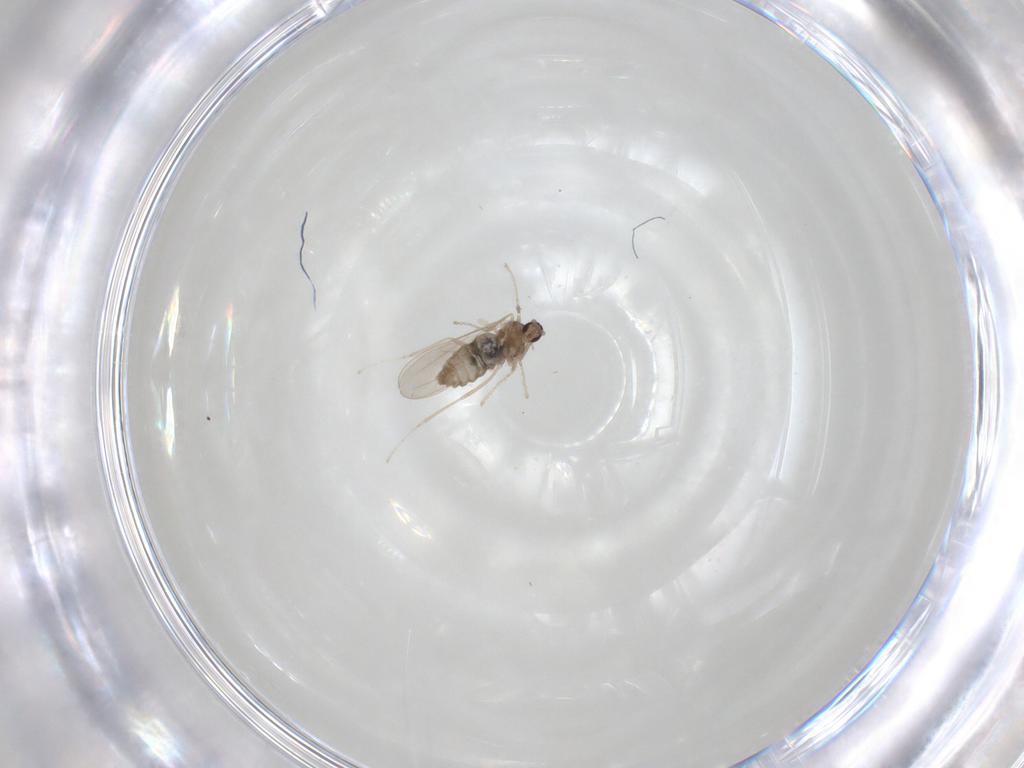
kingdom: Animalia
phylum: Arthropoda
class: Insecta
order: Diptera
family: Cecidomyiidae
